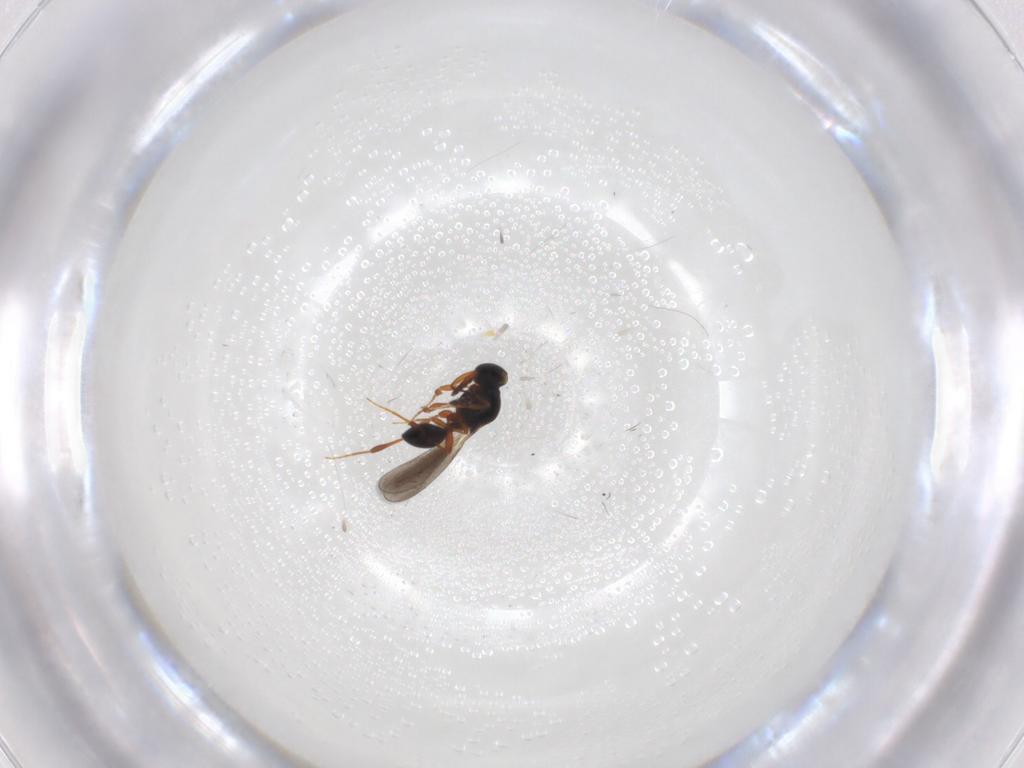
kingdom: Animalia
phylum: Arthropoda
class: Insecta
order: Hymenoptera
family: Platygastridae
